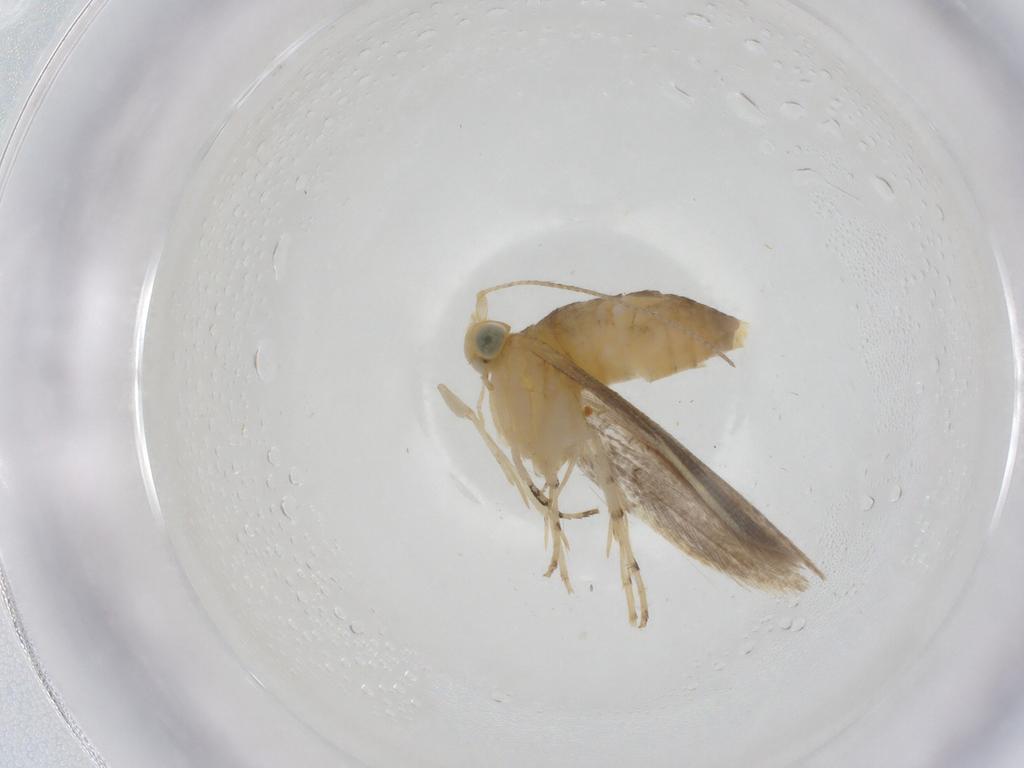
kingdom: Animalia
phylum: Arthropoda
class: Insecta
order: Lepidoptera
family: Argyresthiidae
